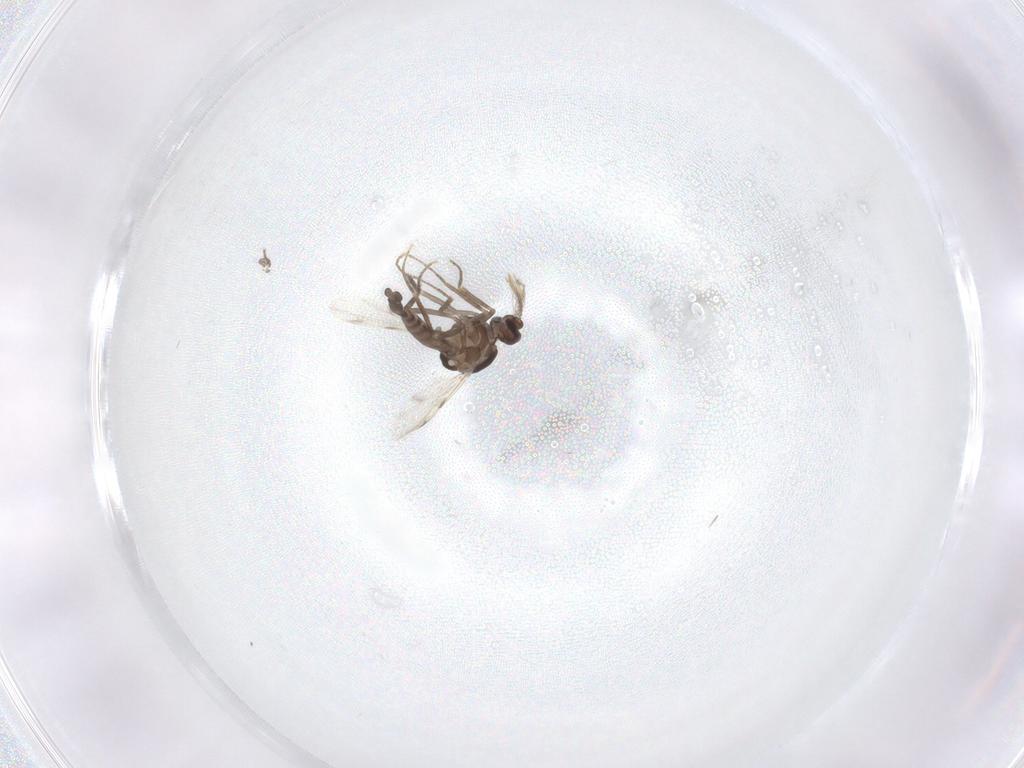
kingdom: Animalia
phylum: Arthropoda
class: Insecta
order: Diptera
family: Ceratopogonidae
